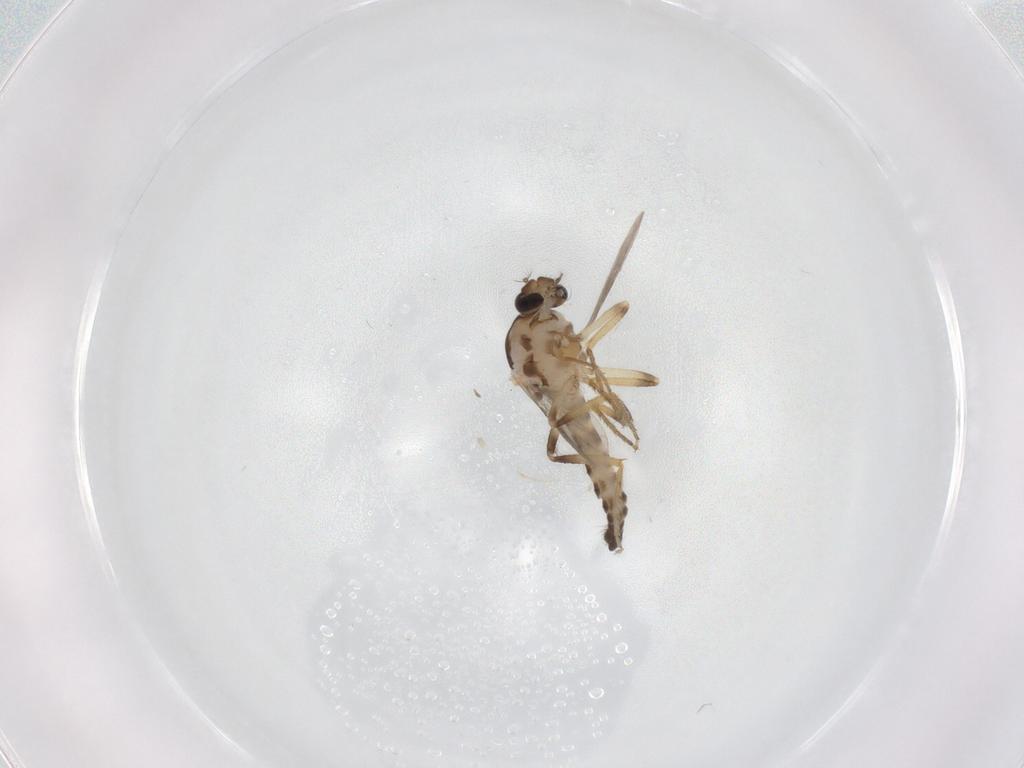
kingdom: Animalia
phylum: Arthropoda
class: Insecta
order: Diptera
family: Ceratopogonidae
